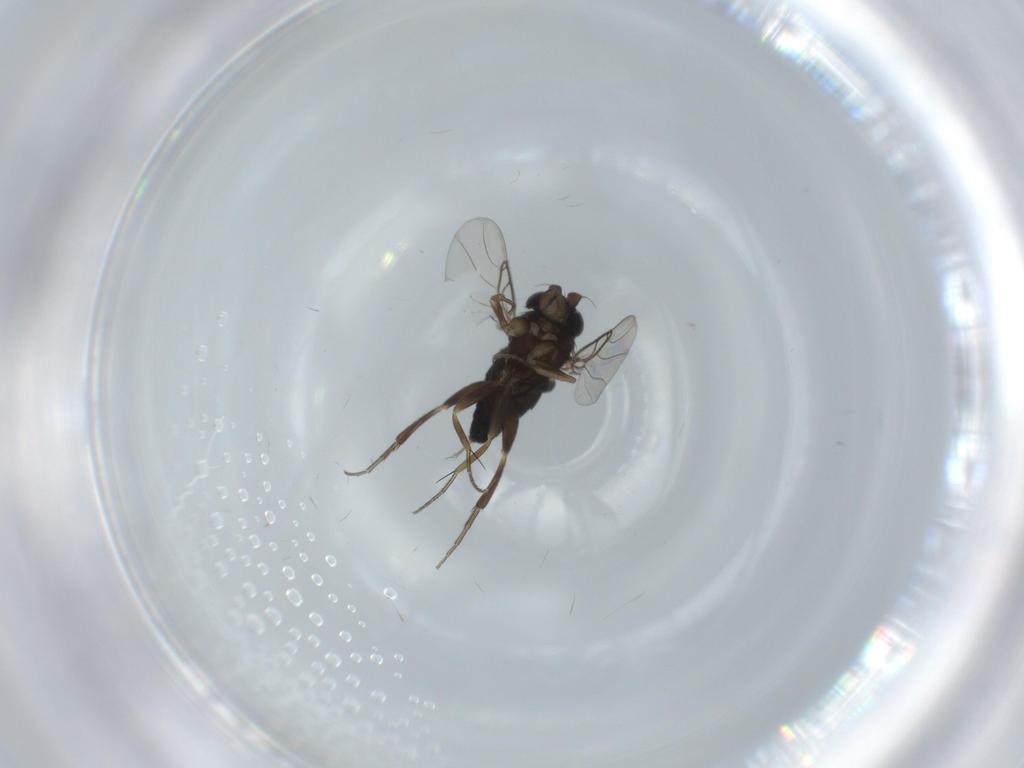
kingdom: Animalia
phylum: Arthropoda
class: Insecta
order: Diptera
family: Phoridae
